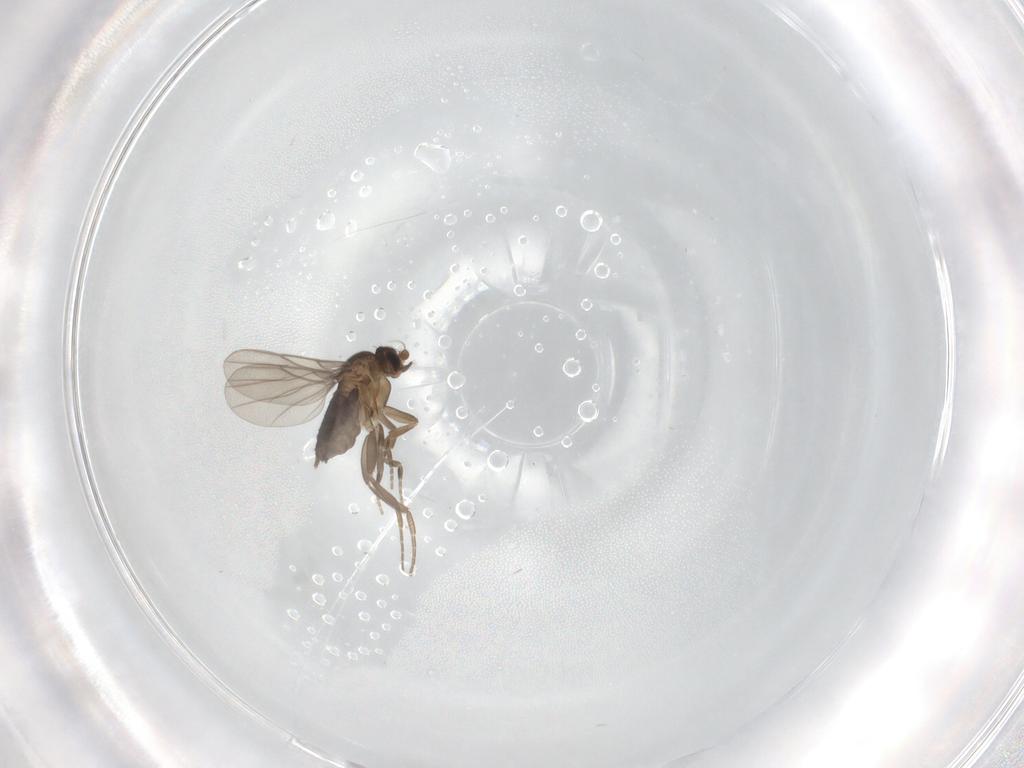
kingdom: Animalia
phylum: Arthropoda
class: Insecta
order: Diptera
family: Phoridae
